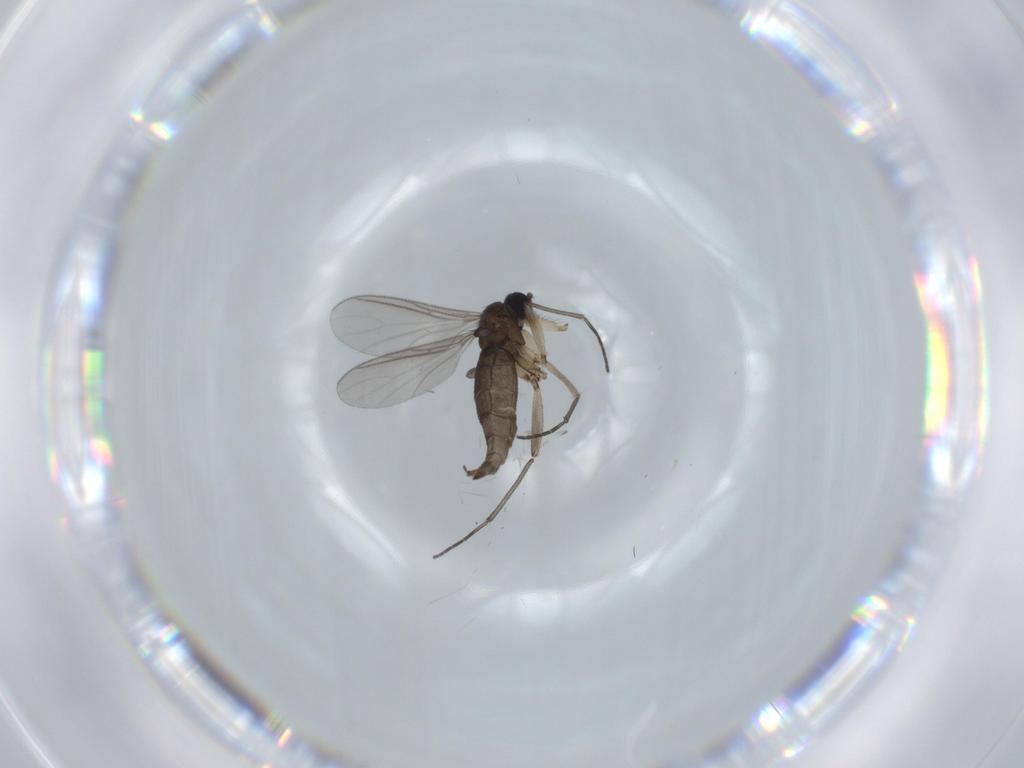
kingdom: Animalia
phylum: Arthropoda
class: Insecta
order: Diptera
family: Sciaridae
